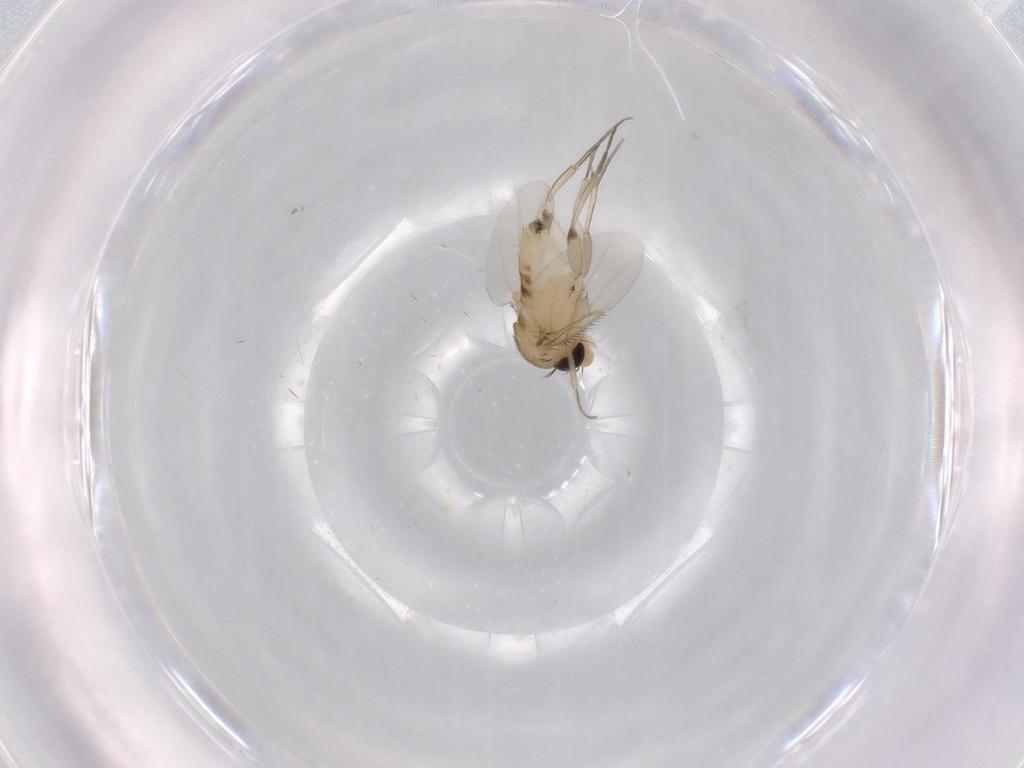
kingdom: Animalia
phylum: Arthropoda
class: Insecta
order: Diptera
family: Phoridae
